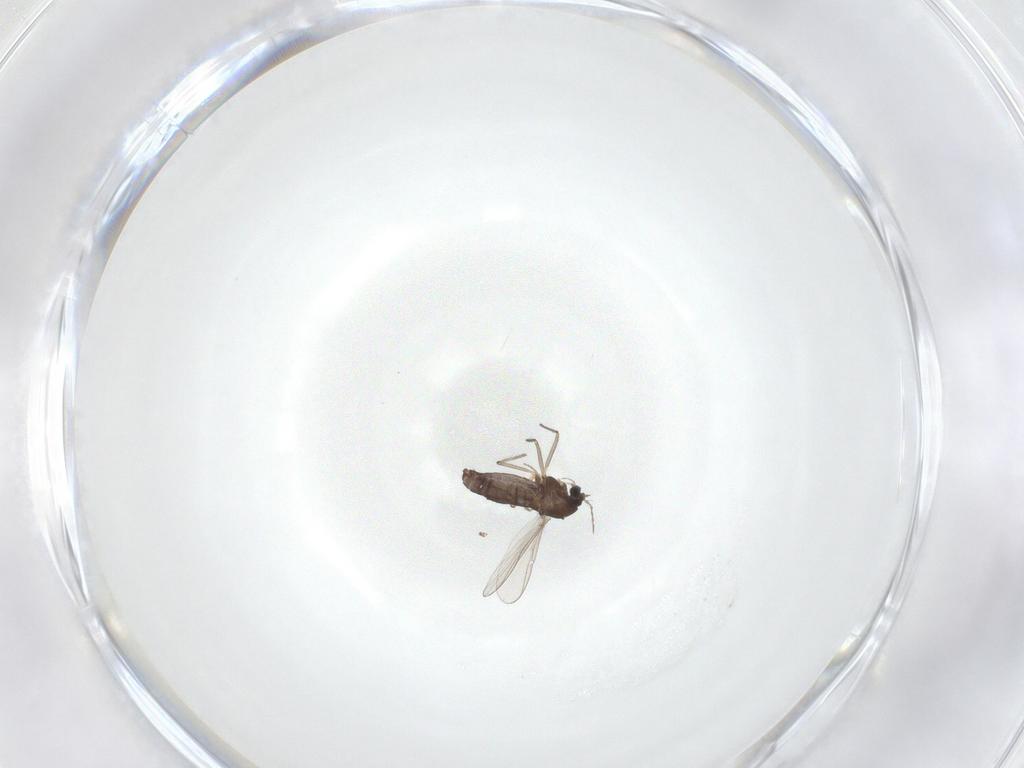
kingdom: Animalia
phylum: Arthropoda
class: Insecta
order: Diptera
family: Chironomidae
